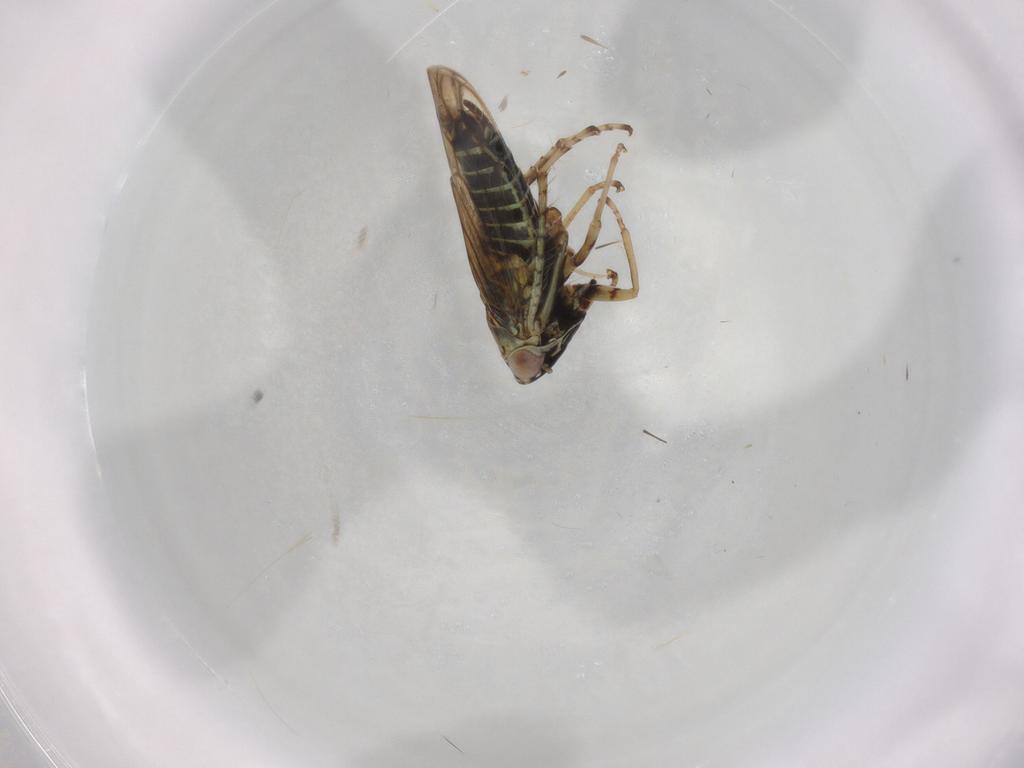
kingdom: Animalia
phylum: Arthropoda
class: Insecta
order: Hemiptera
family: Cicadellidae
